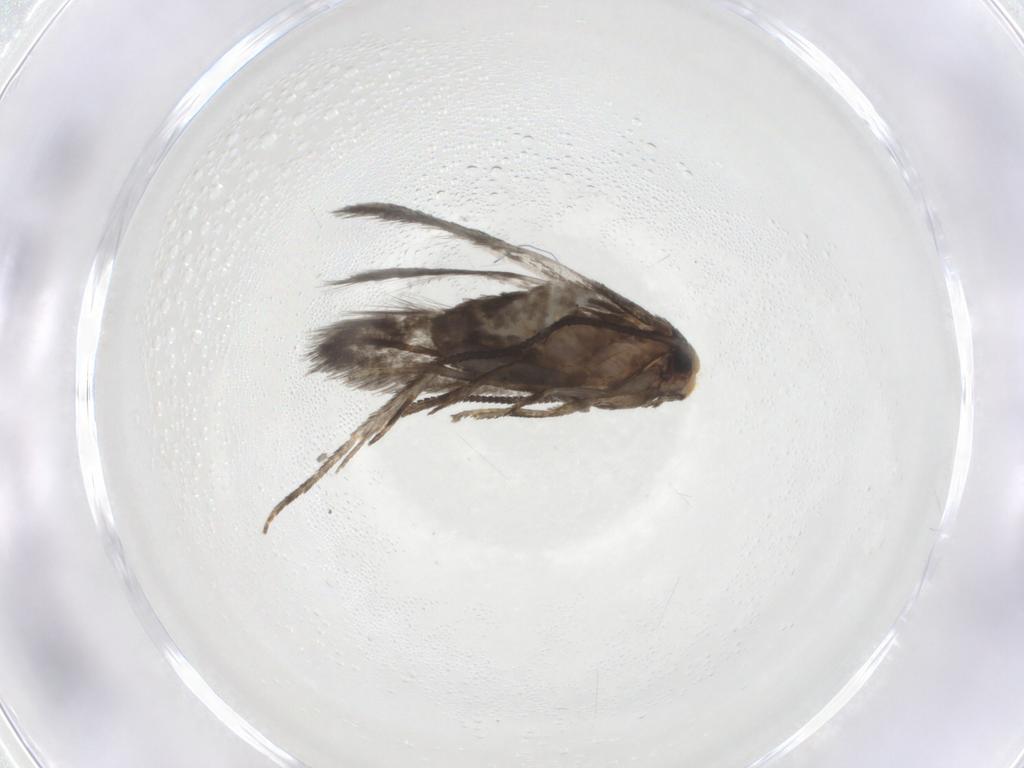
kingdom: Animalia
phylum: Arthropoda
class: Insecta
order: Lepidoptera
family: Nepticulidae
